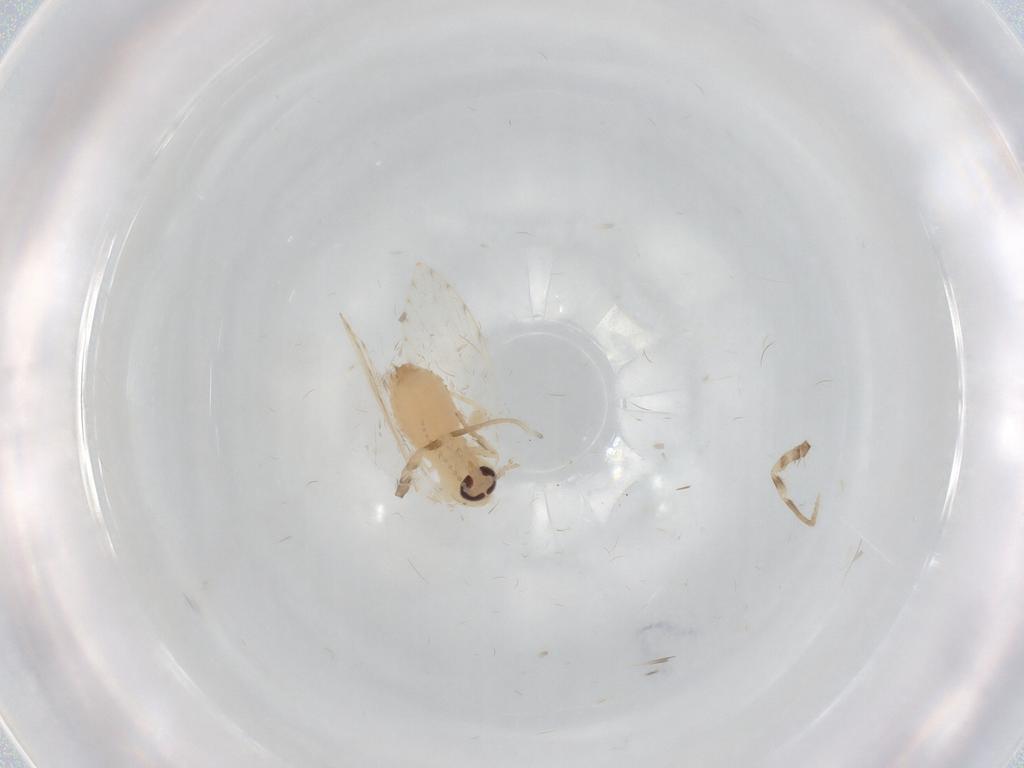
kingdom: Animalia
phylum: Arthropoda
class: Insecta
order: Diptera
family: Psychodidae
